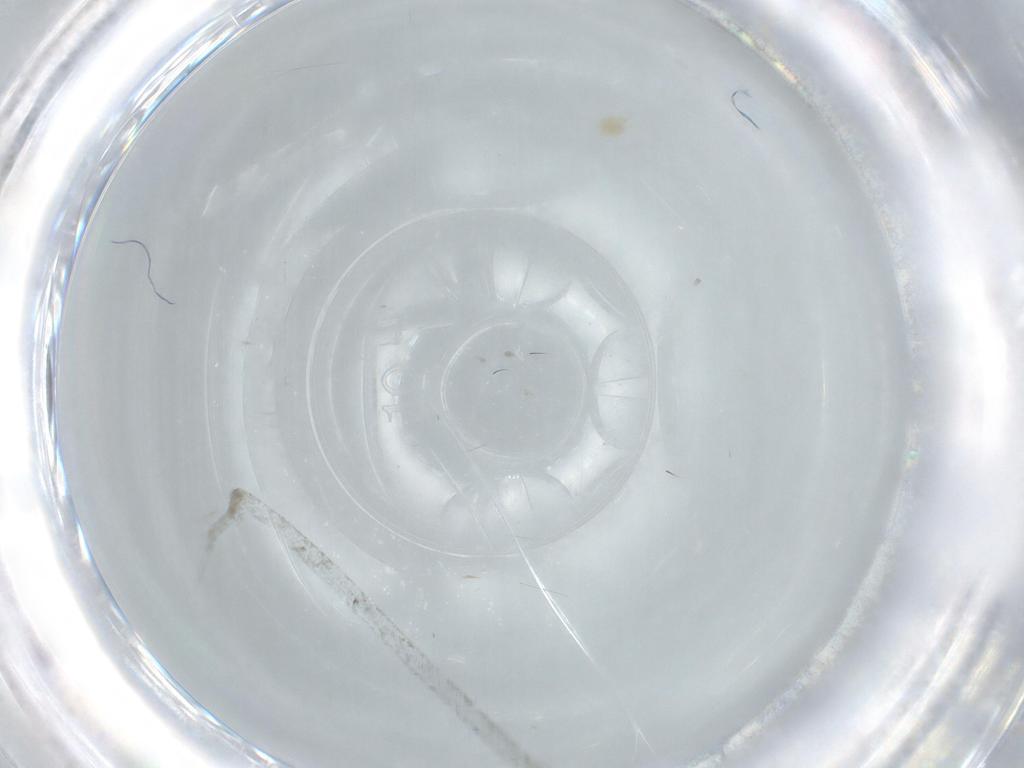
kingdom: Animalia
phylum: Arthropoda
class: Arachnida
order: Trombidiformes
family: Tetranychidae
